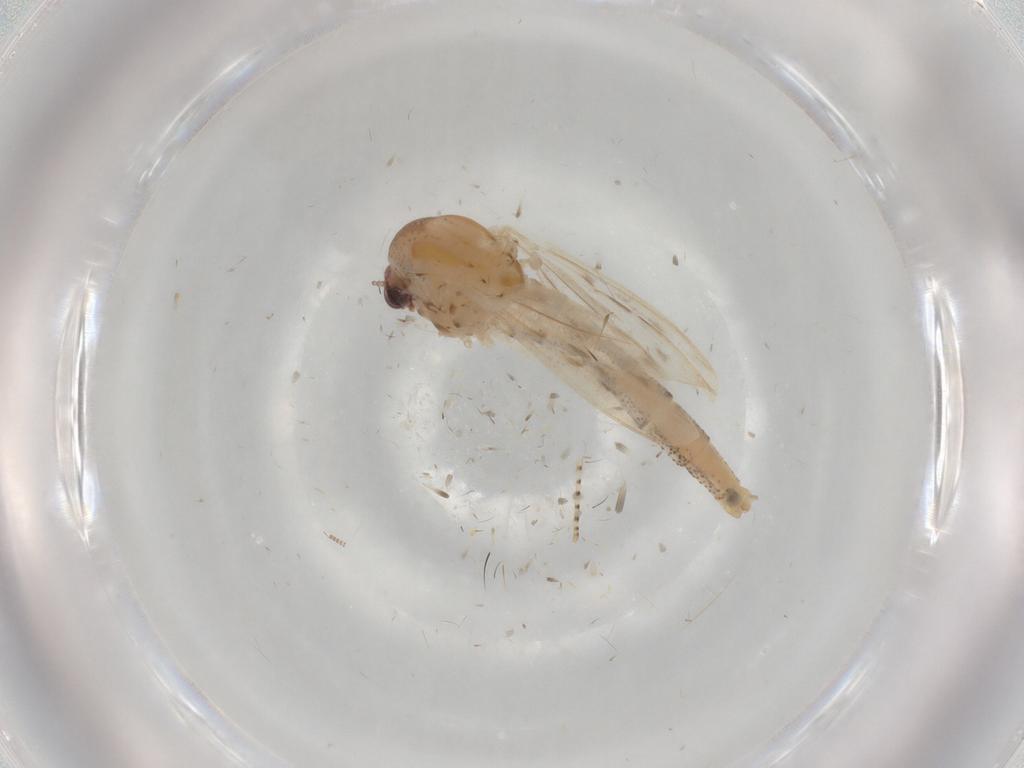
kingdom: Animalia
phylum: Arthropoda
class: Insecta
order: Diptera
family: Chaoboridae
